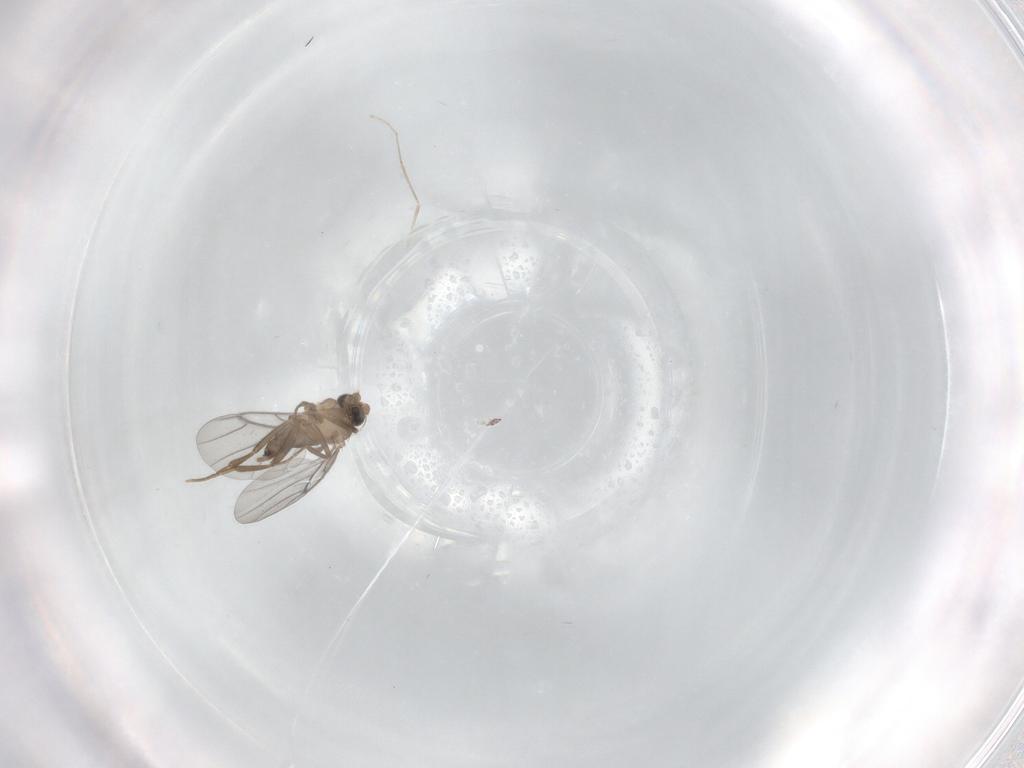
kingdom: Animalia
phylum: Arthropoda
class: Insecta
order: Diptera
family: Cecidomyiidae
